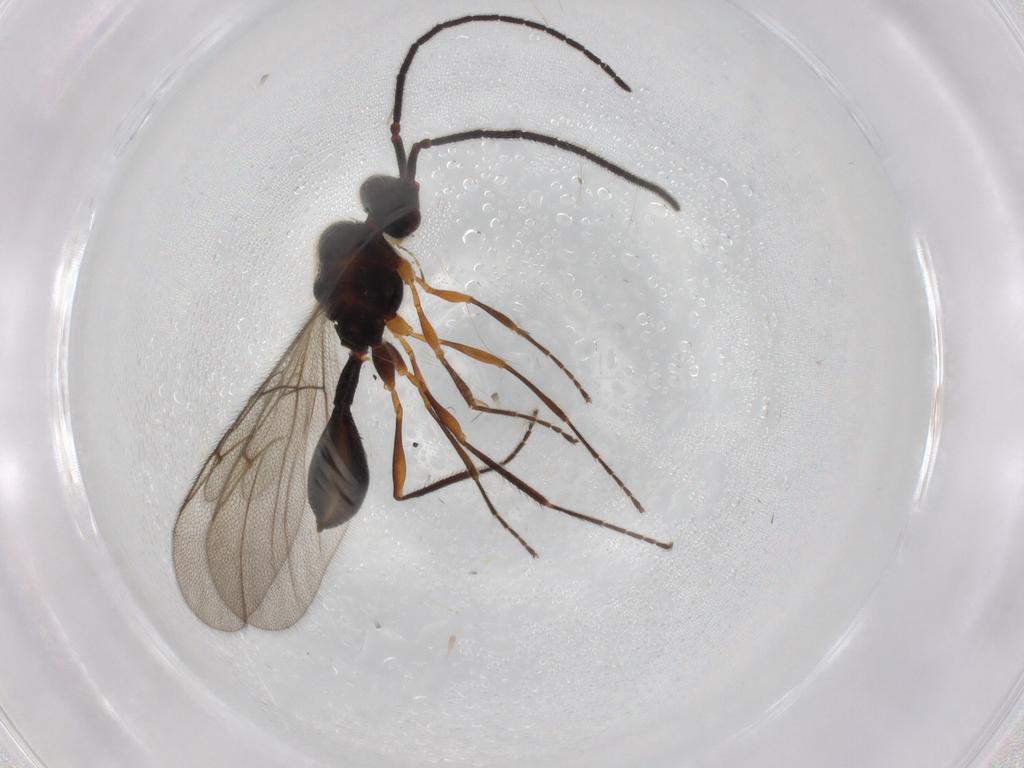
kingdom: Animalia
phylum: Arthropoda
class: Insecta
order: Hymenoptera
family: Diapriidae
